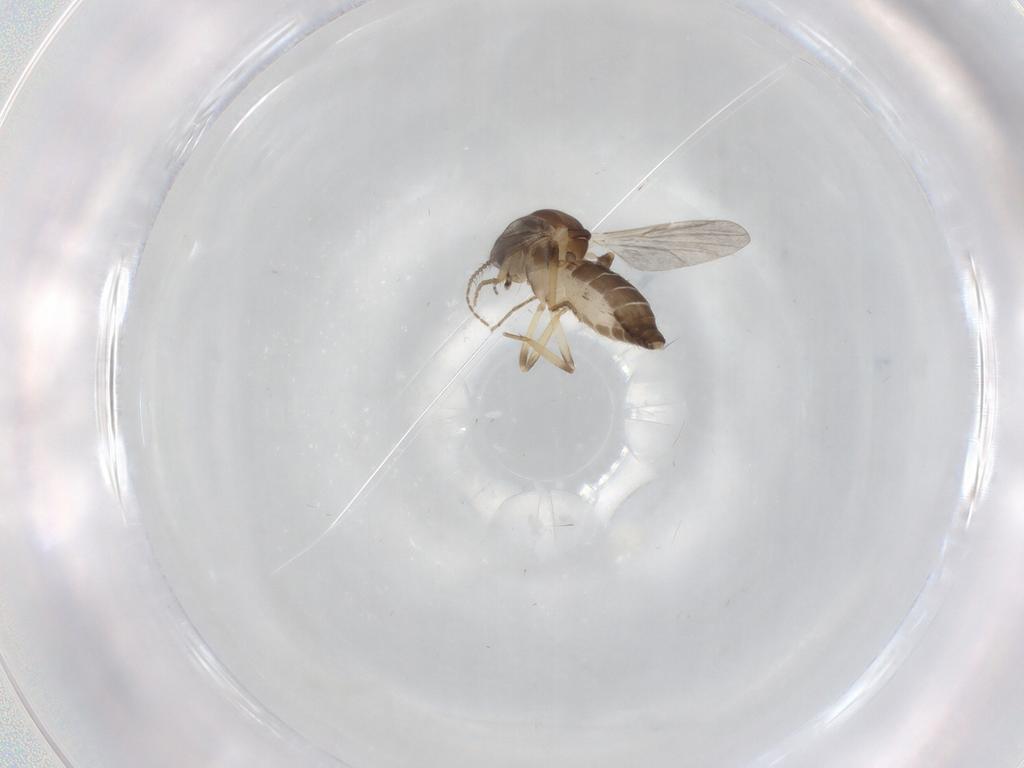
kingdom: Animalia
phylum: Arthropoda
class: Insecta
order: Diptera
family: Ceratopogonidae
